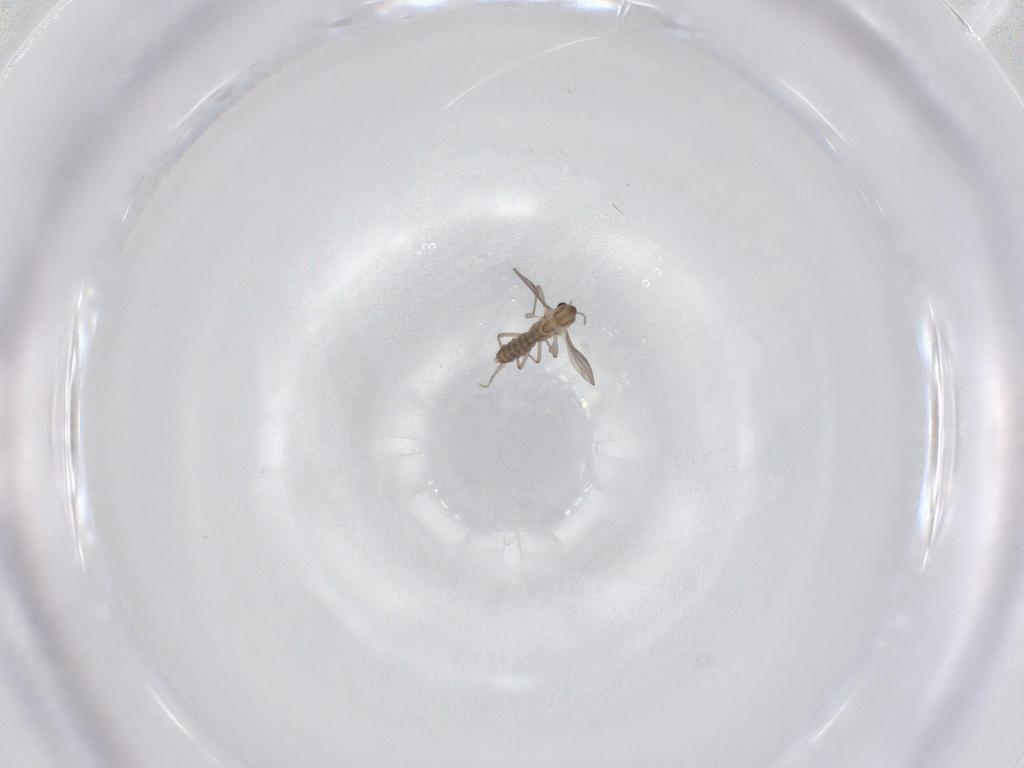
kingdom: Animalia
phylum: Arthropoda
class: Insecta
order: Diptera
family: Chironomidae
